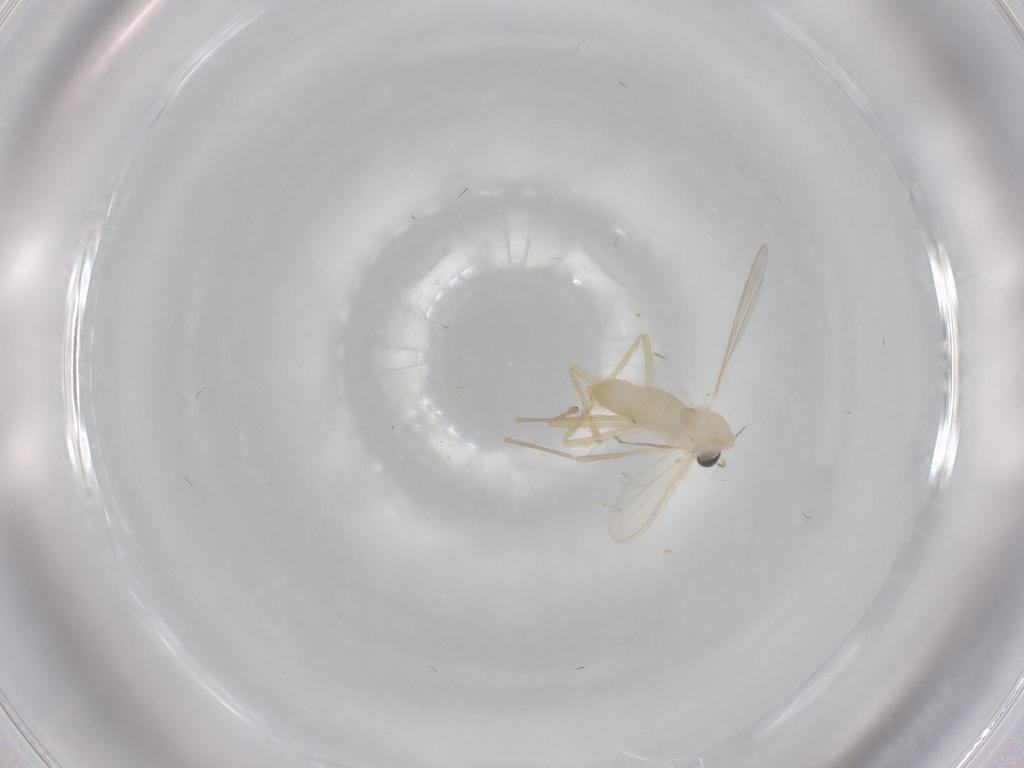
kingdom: Animalia
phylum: Arthropoda
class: Insecta
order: Diptera
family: Chironomidae
